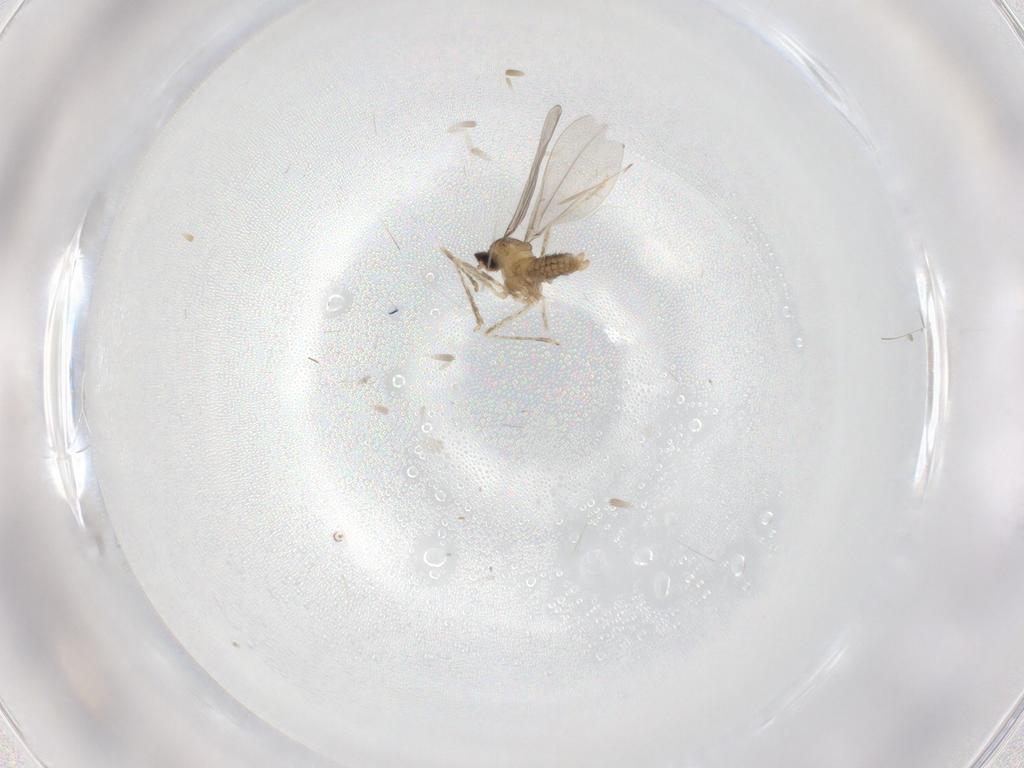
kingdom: Animalia
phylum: Arthropoda
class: Insecta
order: Diptera
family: Cecidomyiidae
